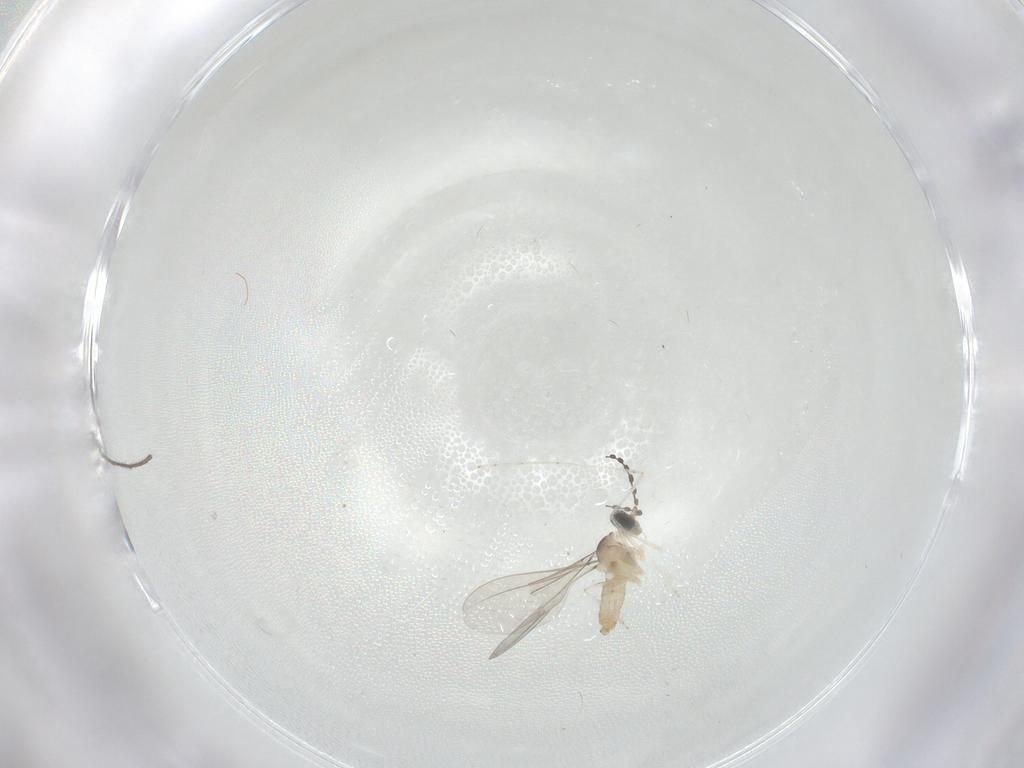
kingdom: Animalia
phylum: Arthropoda
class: Insecta
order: Diptera
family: Limoniidae
